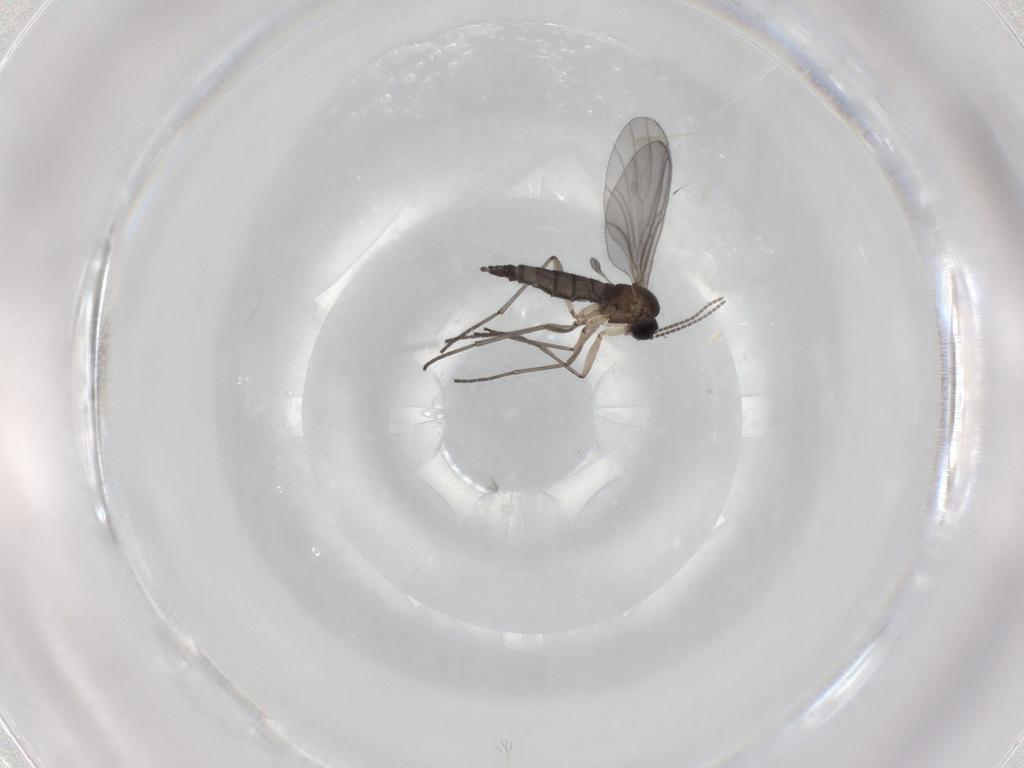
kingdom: Animalia
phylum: Arthropoda
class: Insecta
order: Diptera
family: Sciaridae
